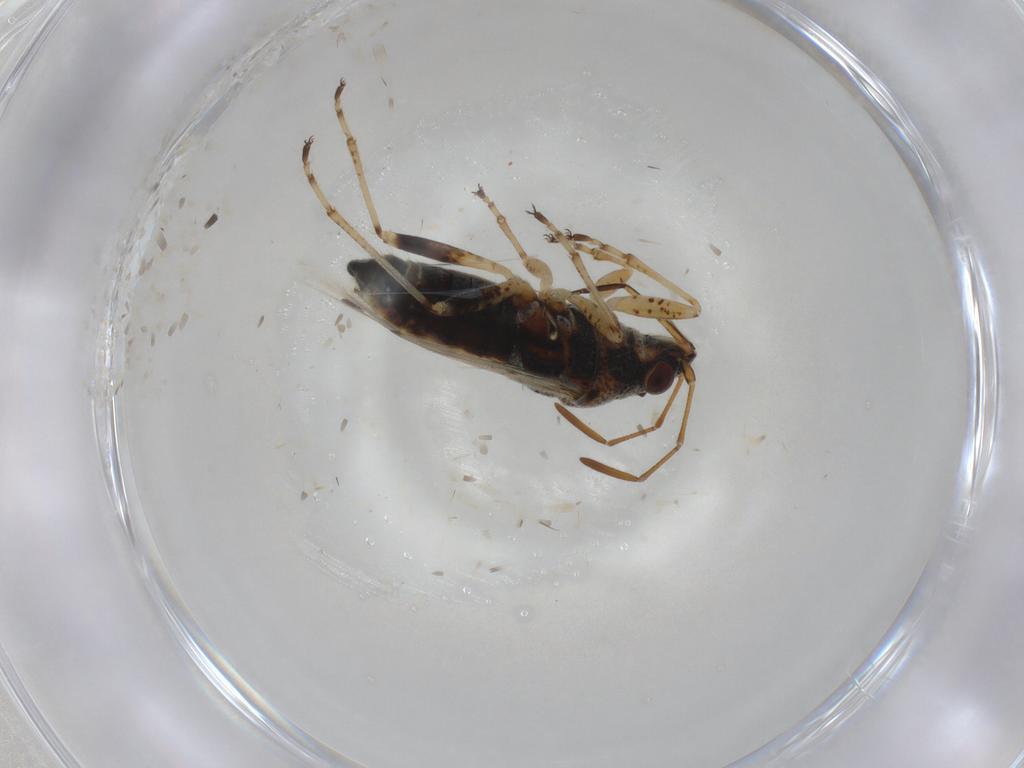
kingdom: Animalia
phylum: Arthropoda
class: Insecta
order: Hemiptera
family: Lygaeidae
